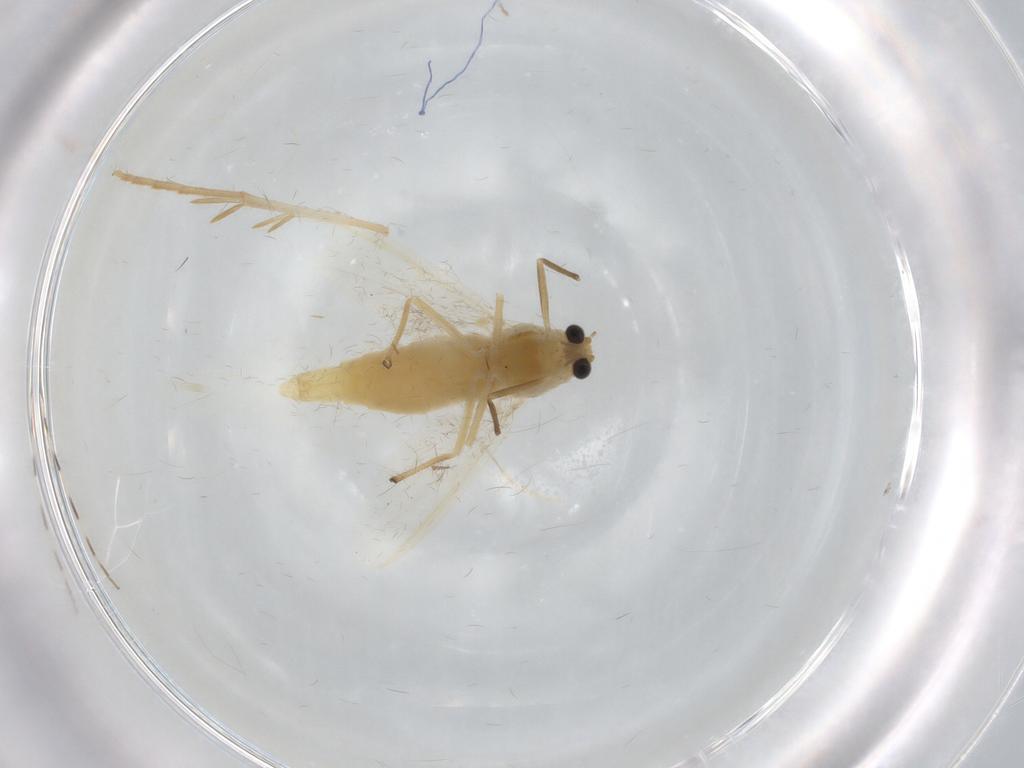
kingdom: Animalia
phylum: Arthropoda
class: Insecta
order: Diptera
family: Chironomidae
